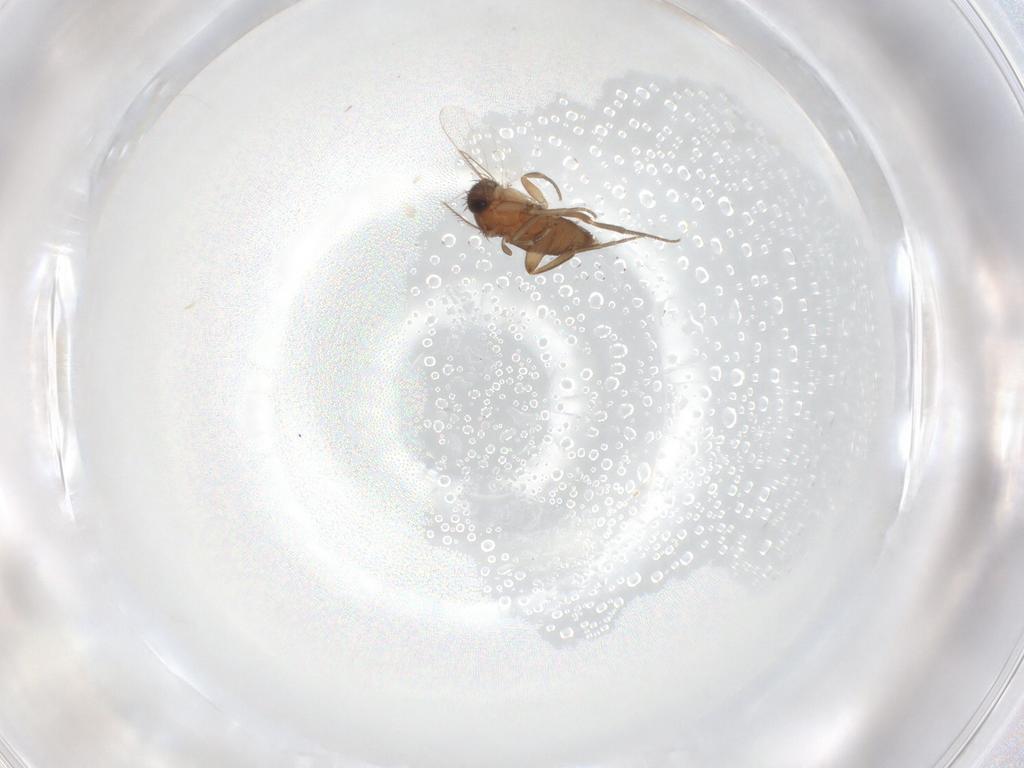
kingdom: Animalia
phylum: Arthropoda
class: Insecta
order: Diptera
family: Phoridae
